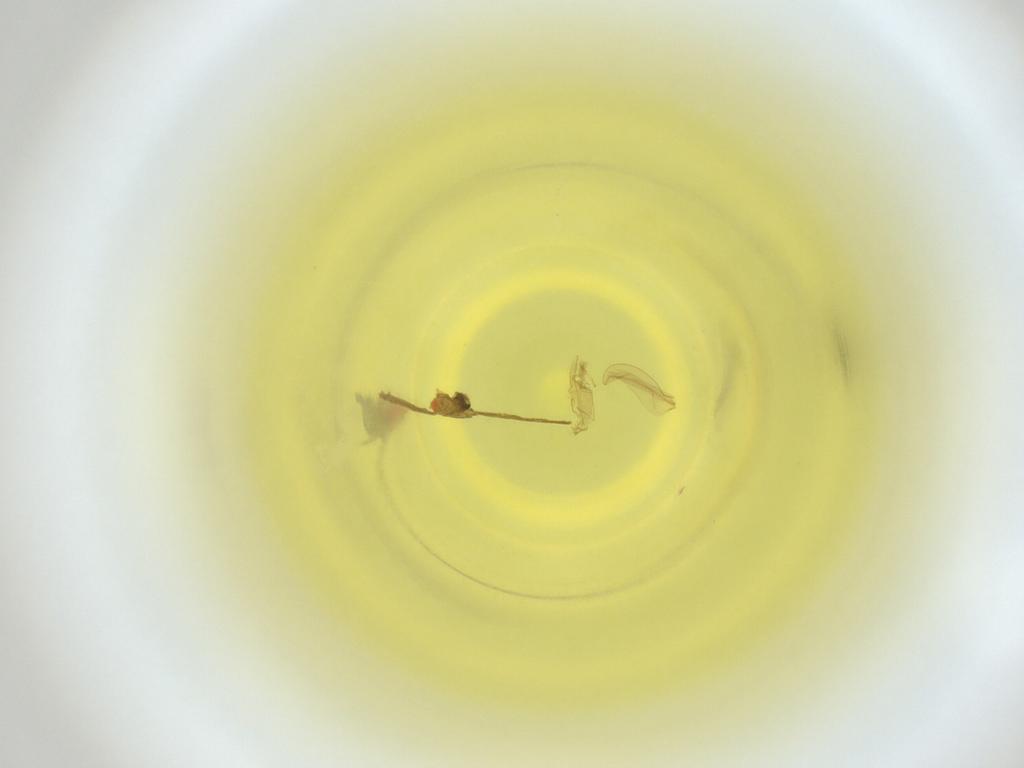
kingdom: Animalia
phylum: Arthropoda
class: Insecta
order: Diptera
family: Cecidomyiidae
